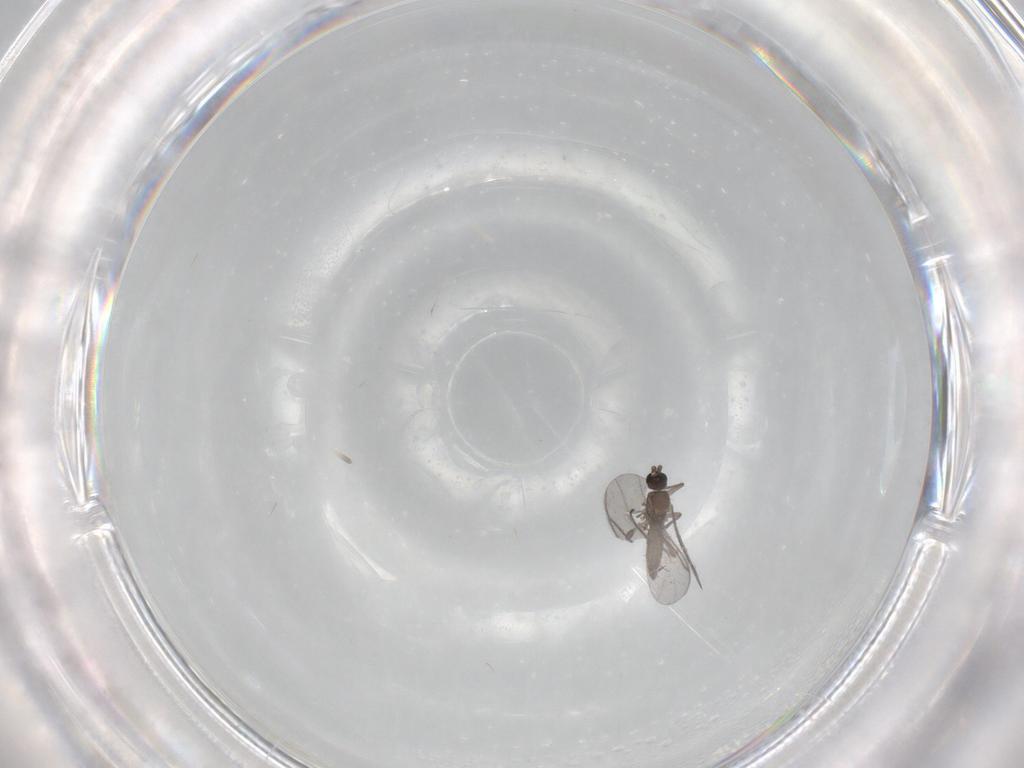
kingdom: Animalia
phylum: Arthropoda
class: Insecta
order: Diptera
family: Sciaridae
